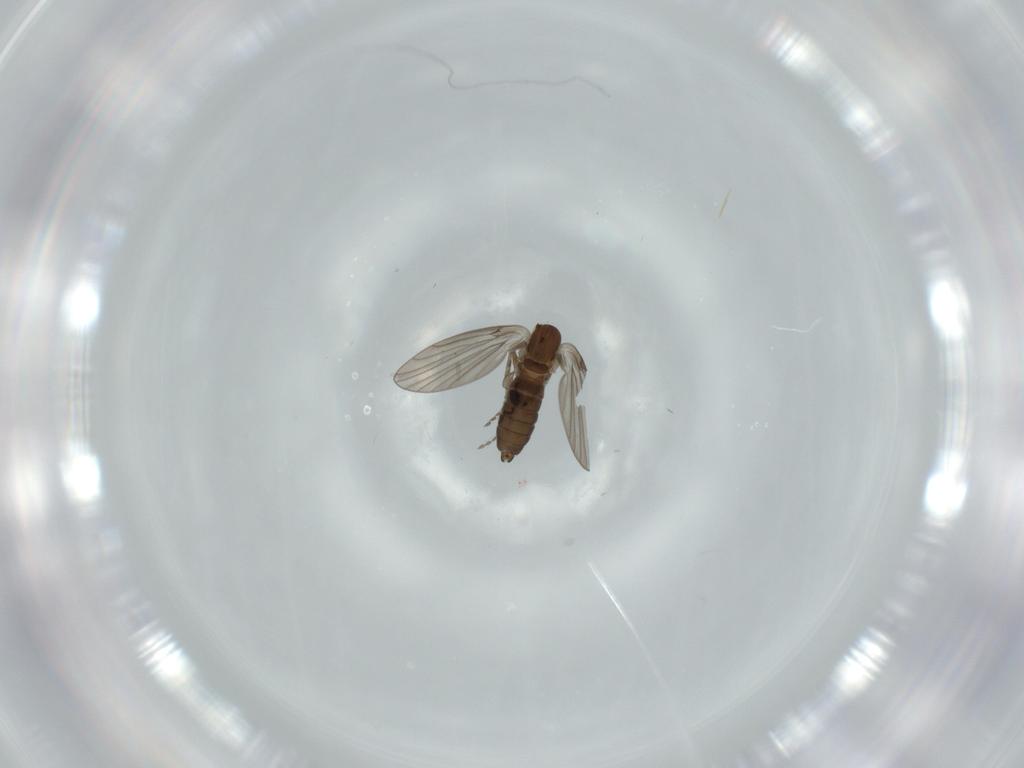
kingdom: Animalia
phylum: Arthropoda
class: Insecta
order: Diptera
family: Psychodidae
